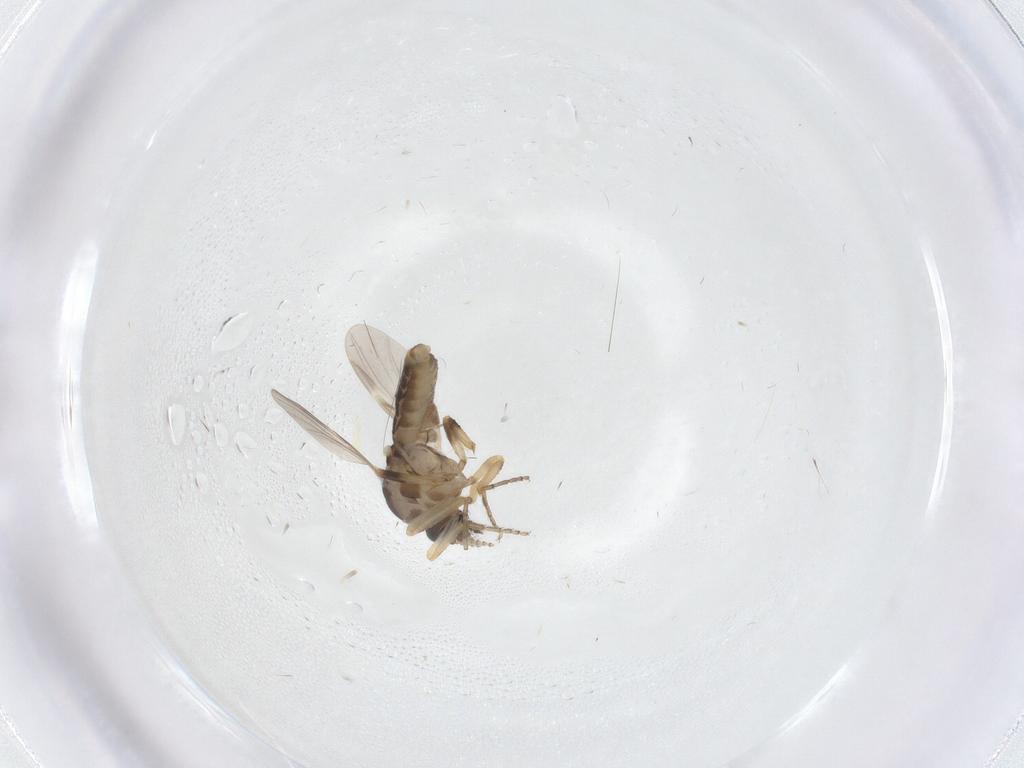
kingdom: Animalia
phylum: Arthropoda
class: Insecta
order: Diptera
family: Ceratopogonidae
